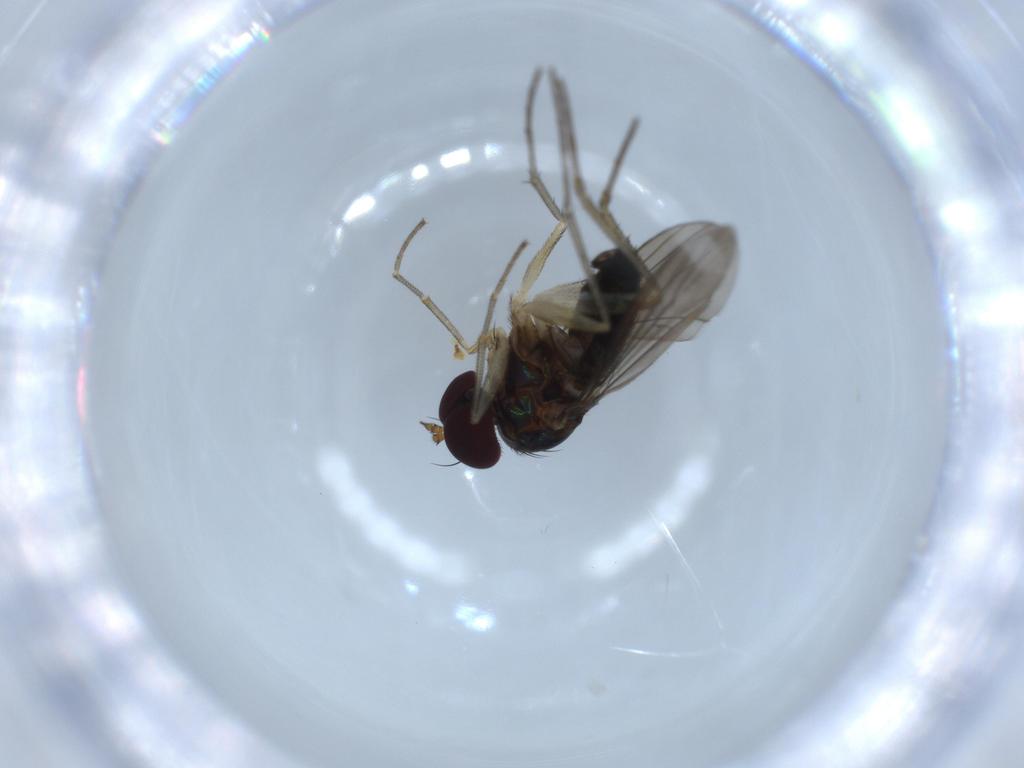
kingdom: Animalia
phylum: Arthropoda
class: Insecta
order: Diptera
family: Dolichopodidae
